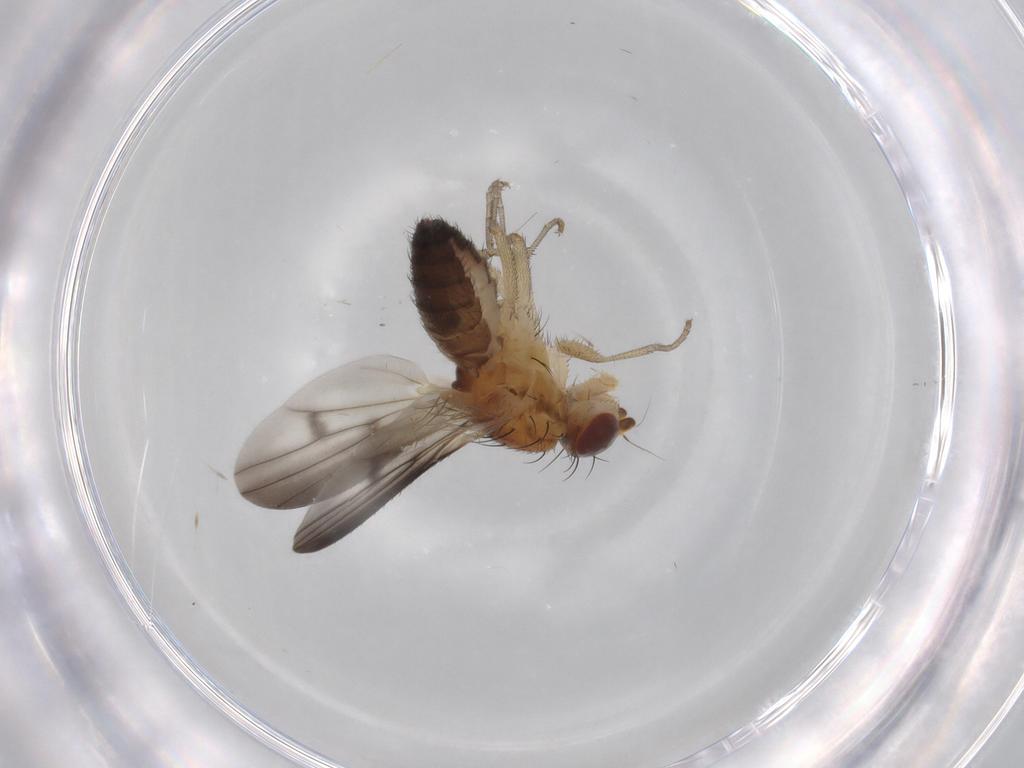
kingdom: Animalia
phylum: Arthropoda
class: Insecta
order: Diptera
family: Heleomyzidae
